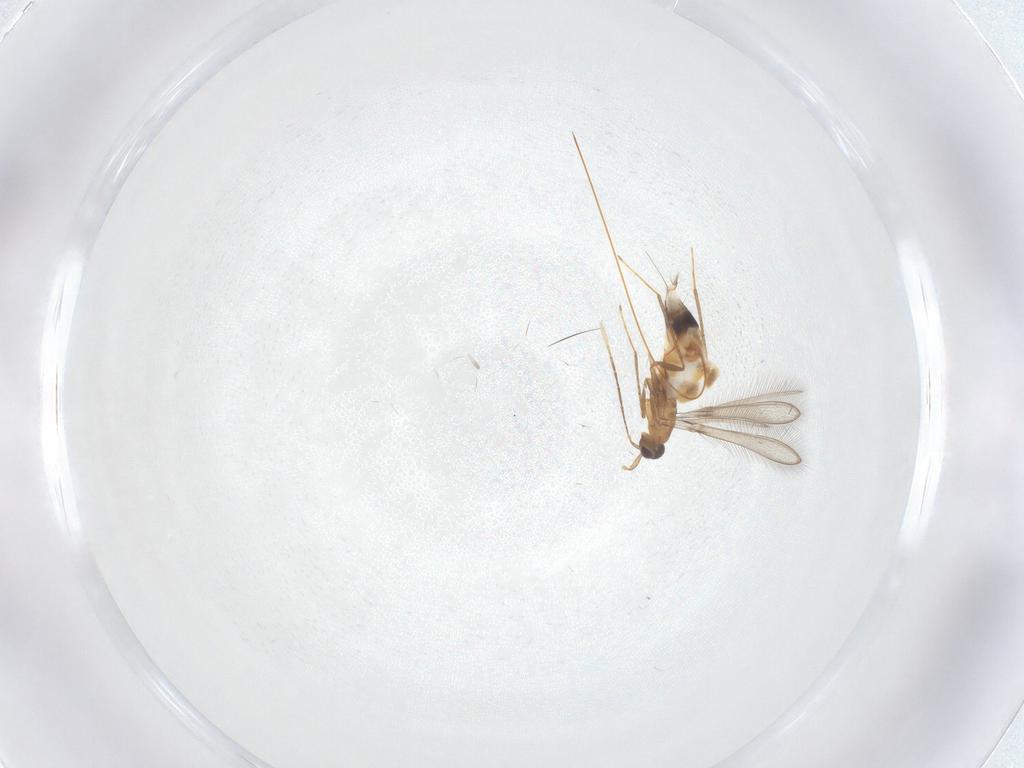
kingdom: Animalia
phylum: Arthropoda
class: Insecta
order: Hymenoptera
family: Mymaridae
